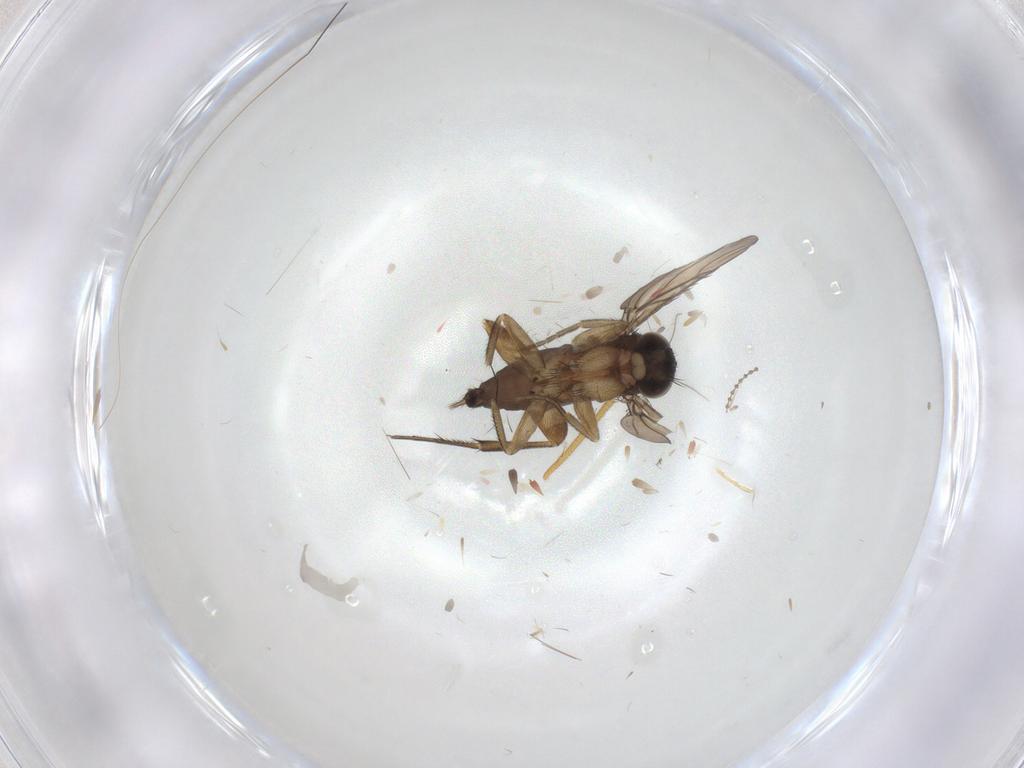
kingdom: Animalia
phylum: Arthropoda
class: Insecta
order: Diptera
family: Phoridae
